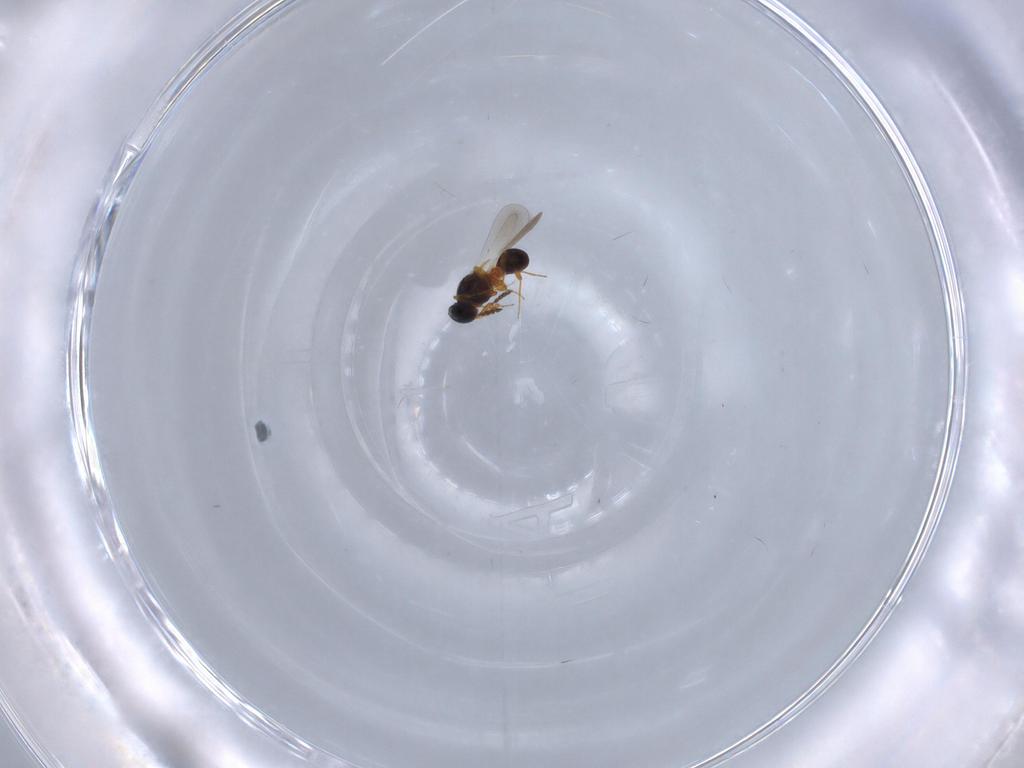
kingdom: Animalia
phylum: Arthropoda
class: Insecta
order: Hymenoptera
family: Platygastridae
